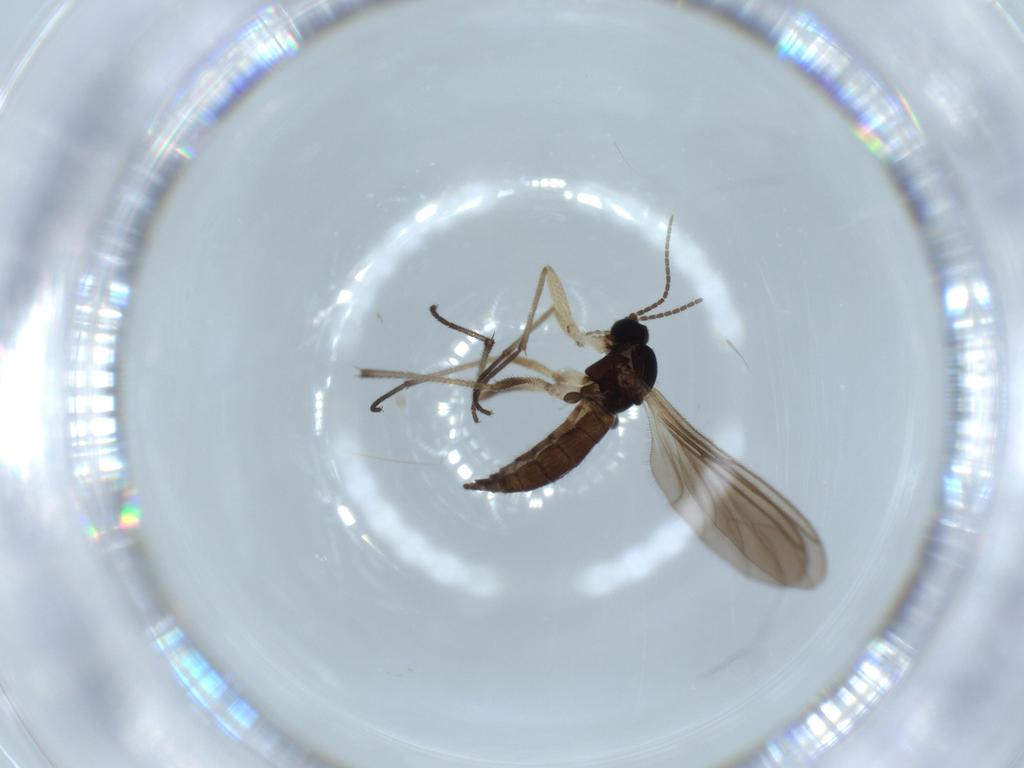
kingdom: Animalia
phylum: Arthropoda
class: Insecta
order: Diptera
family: Sciaridae
